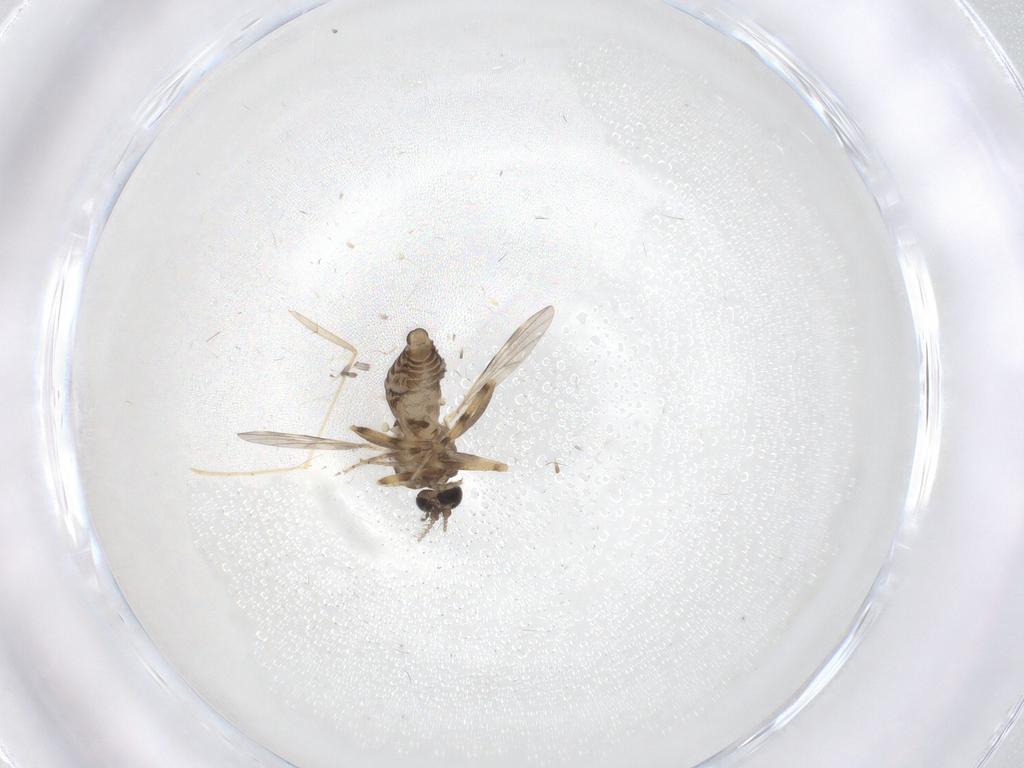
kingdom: Animalia
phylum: Arthropoda
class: Insecta
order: Diptera
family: Ceratopogonidae
